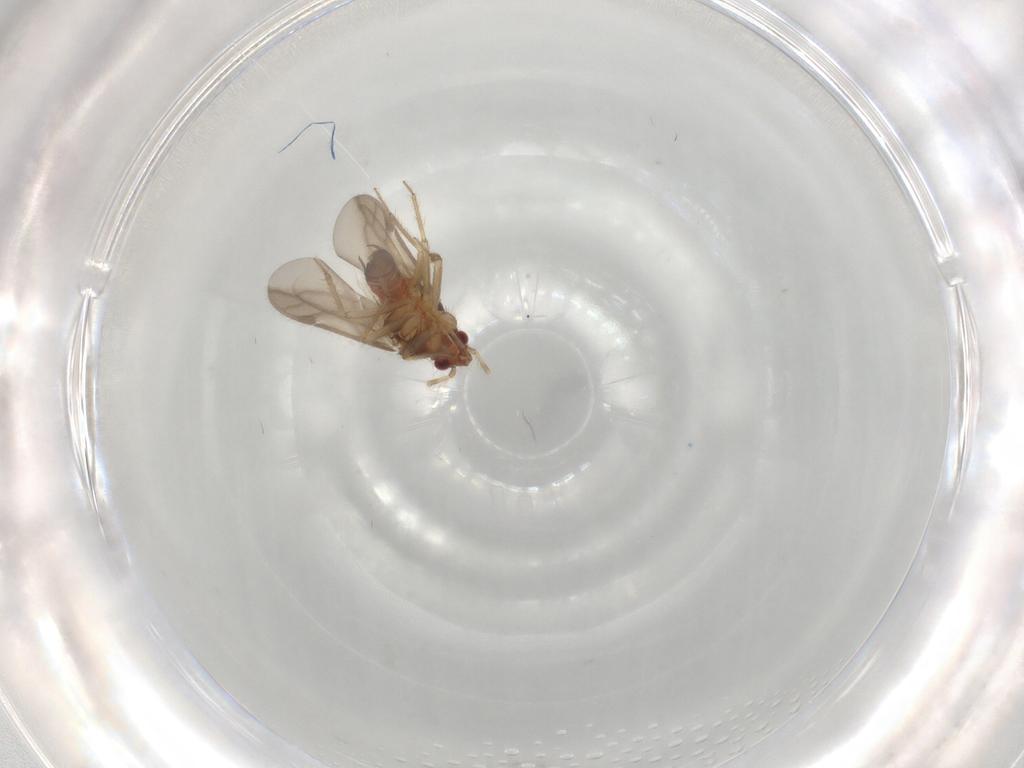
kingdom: Animalia
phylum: Arthropoda
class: Insecta
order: Hemiptera
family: Ceratocombidae
